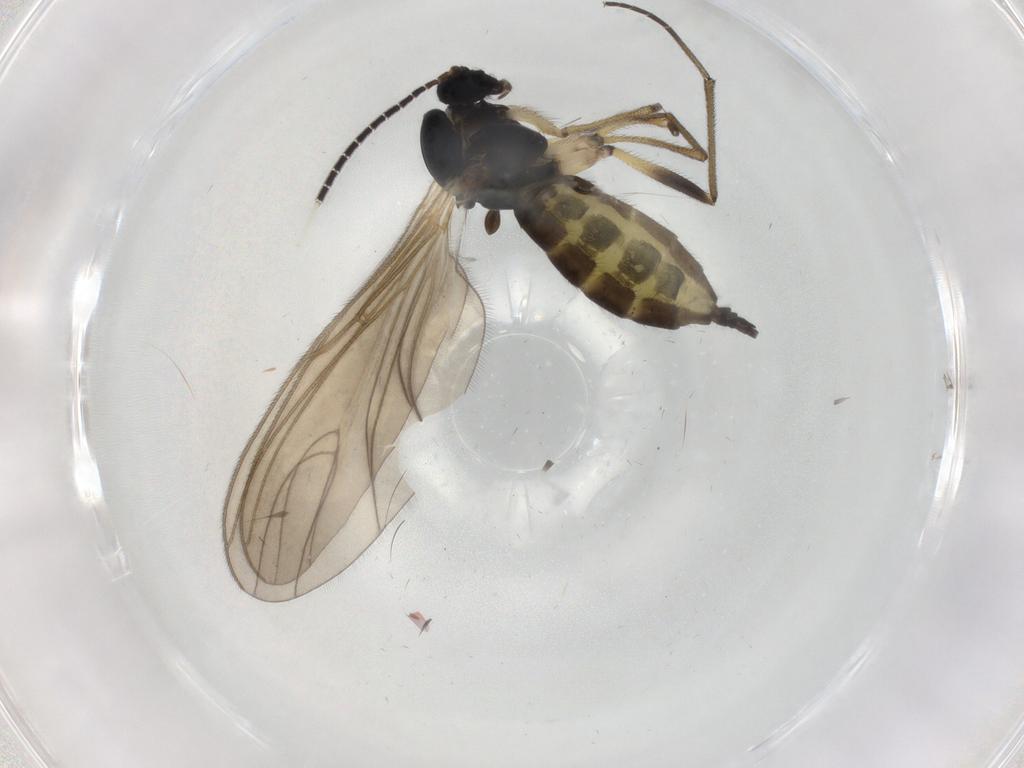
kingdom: Animalia
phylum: Arthropoda
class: Insecta
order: Diptera
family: Sciaridae
